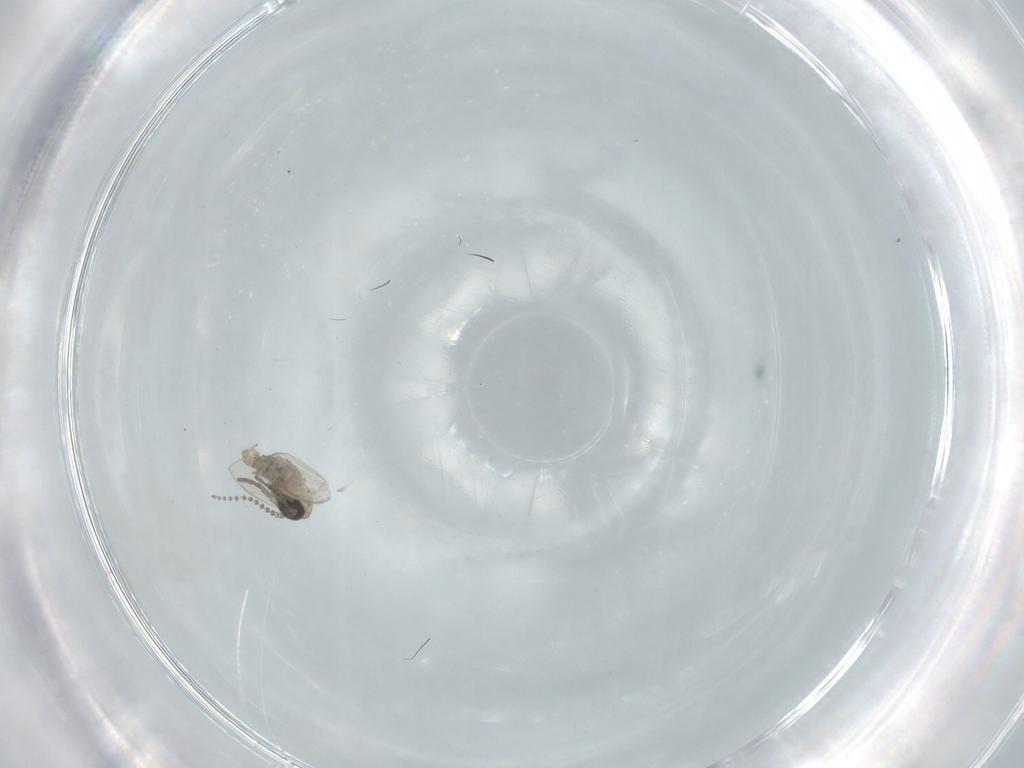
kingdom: Animalia
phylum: Arthropoda
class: Insecta
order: Diptera
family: Psychodidae
